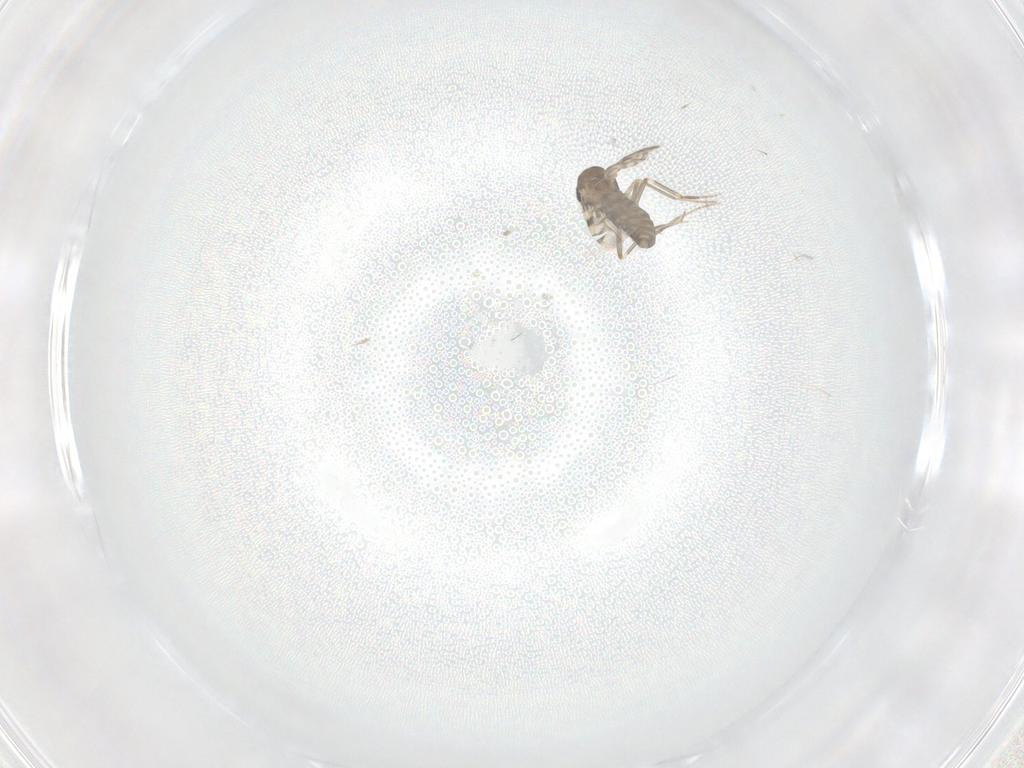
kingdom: Animalia
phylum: Arthropoda
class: Insecta
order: Diptera
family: Ceratopogonidae
